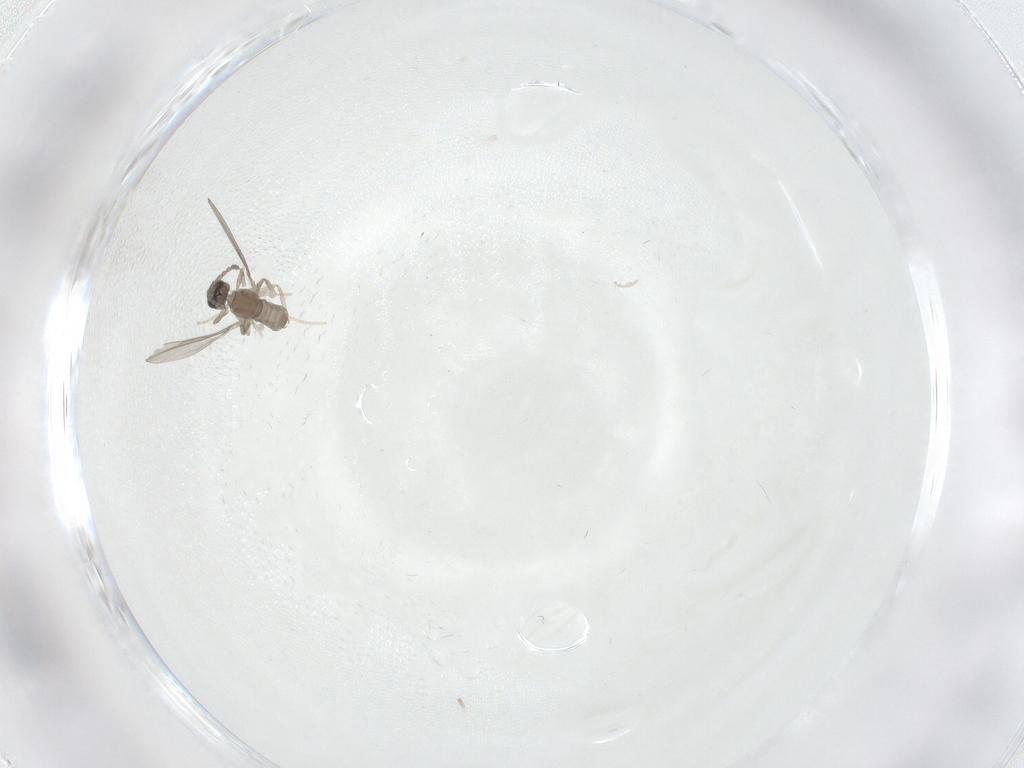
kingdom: Animalia
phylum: Arthropoda
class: Insecta
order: Diptera
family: Cecidomyiidae
